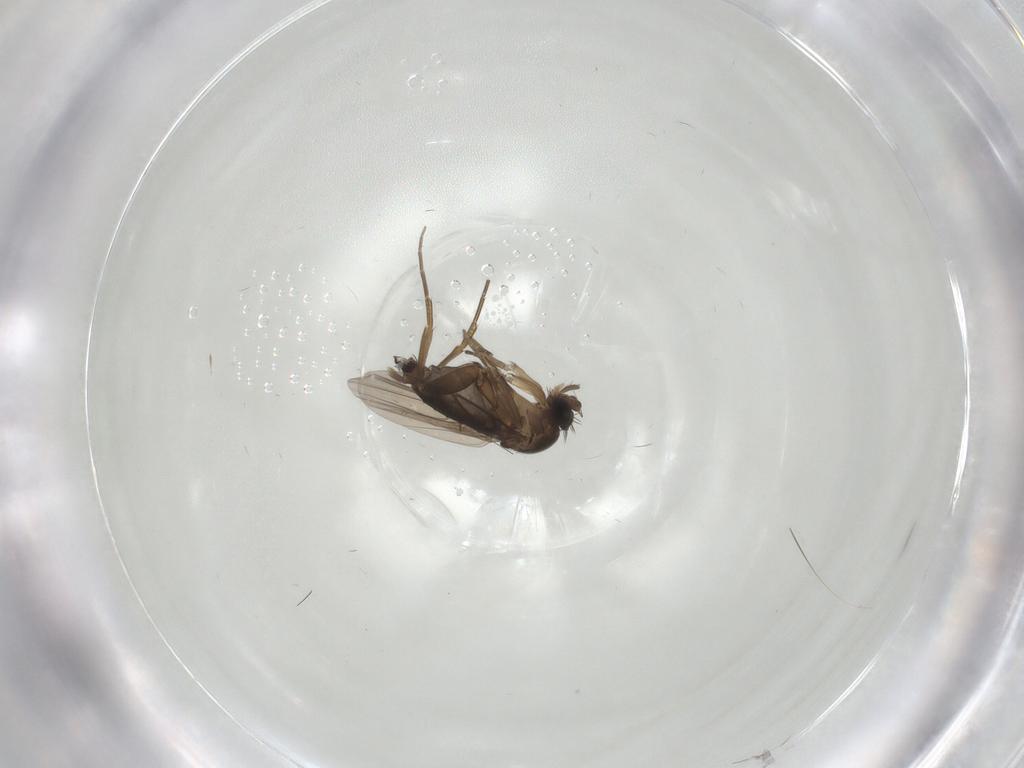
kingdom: Animalia
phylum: Arthropoda
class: Insecta
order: Diptera
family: Phoridae
